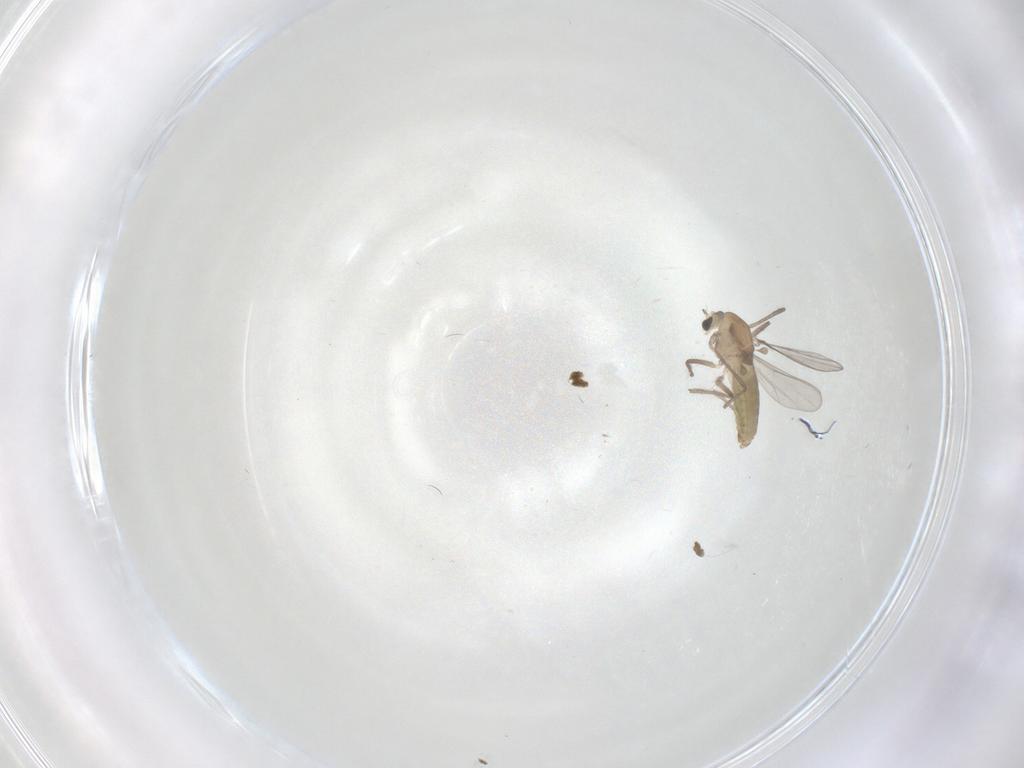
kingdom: Animalia
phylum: Arthropoda
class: Insecta
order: Diptera
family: Chironomidae
